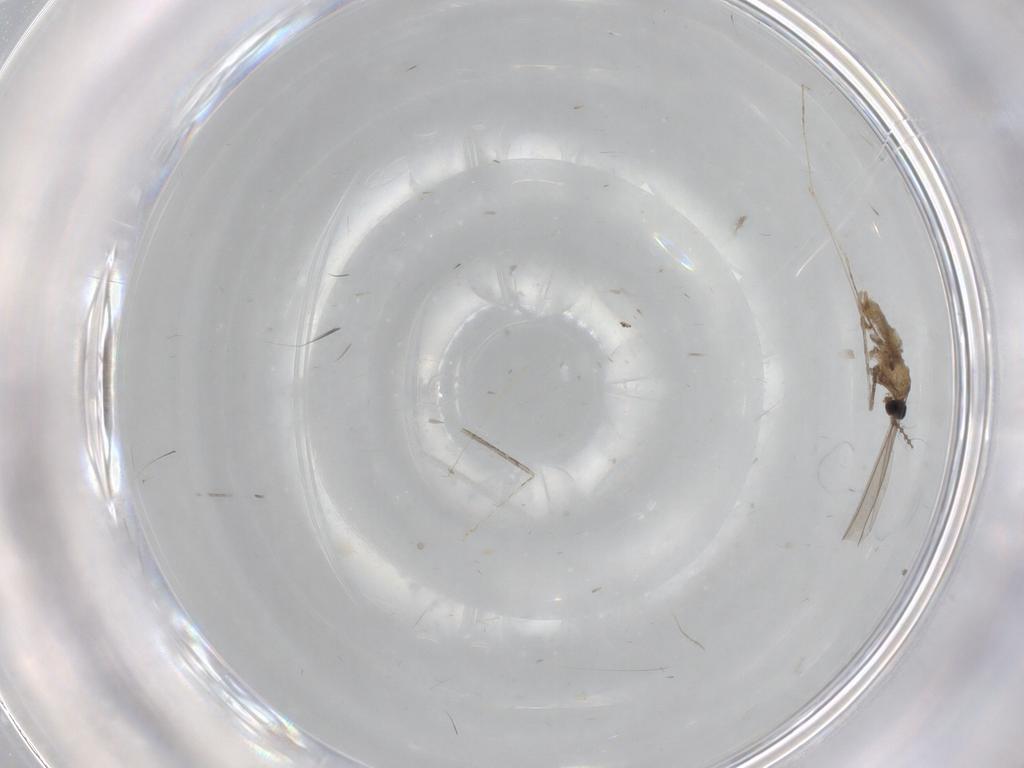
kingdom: Animalia
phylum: Arthropoda
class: Insecta
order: Diptera
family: Cecidomyiidae
